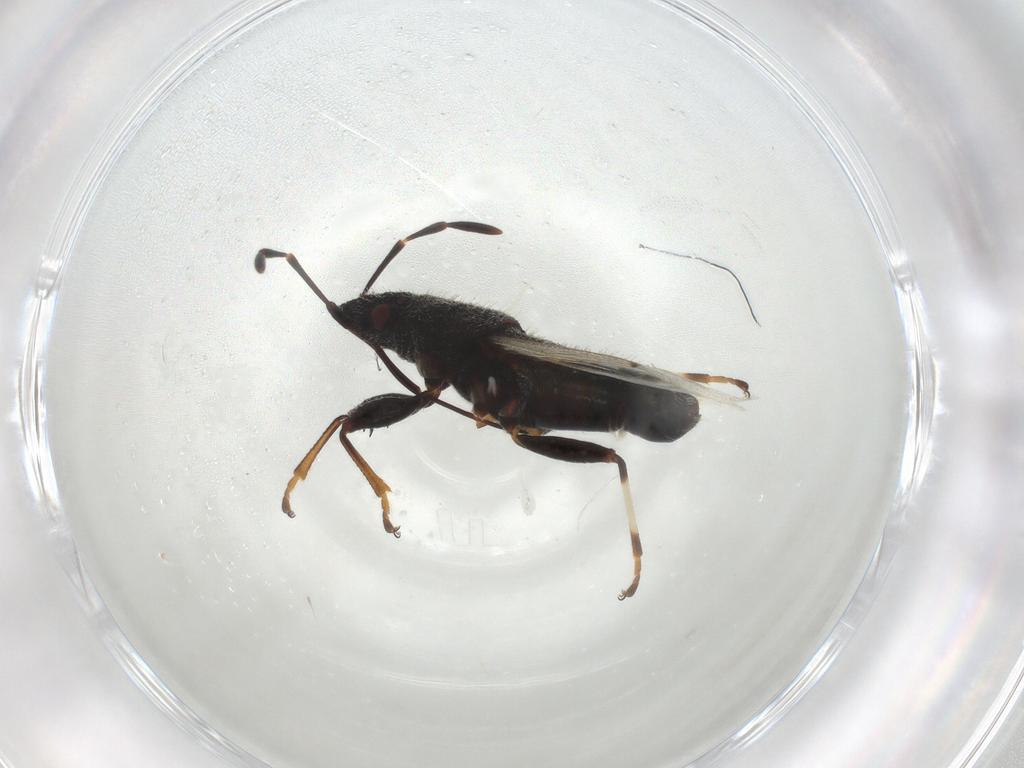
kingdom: Animalia
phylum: Arthropoda
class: Insecta
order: Hemiptera
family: Oxycarenidae
